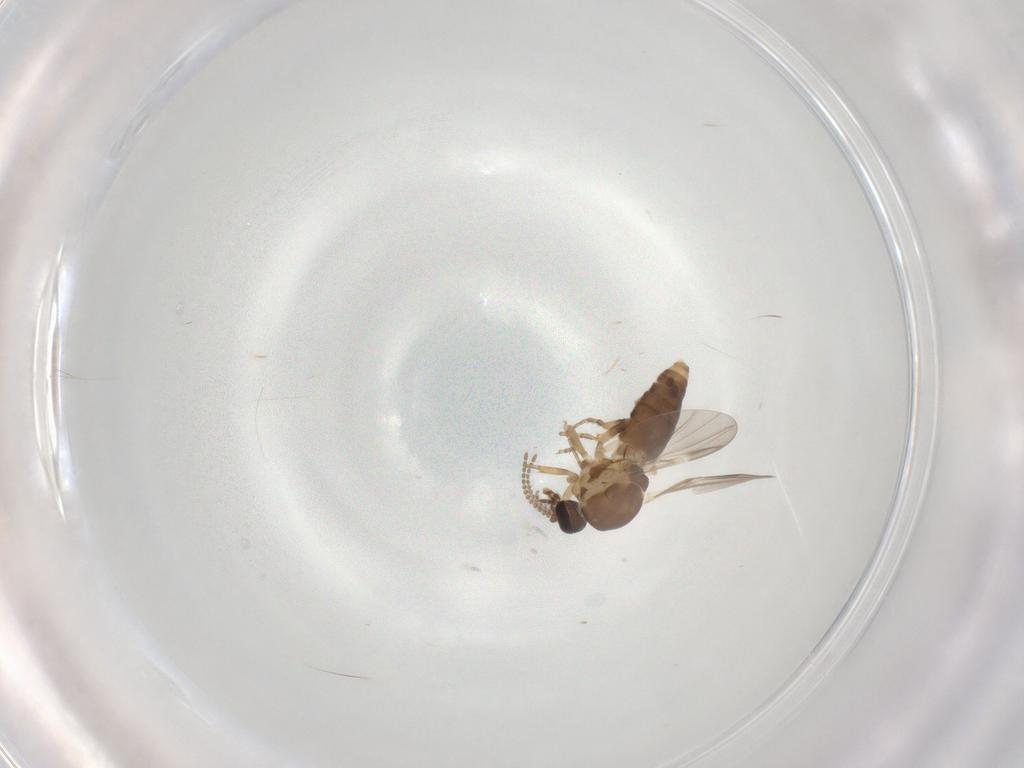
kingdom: Animalia
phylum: Arthropoda
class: Insecta
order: Diptera
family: Ceratopogonidae
